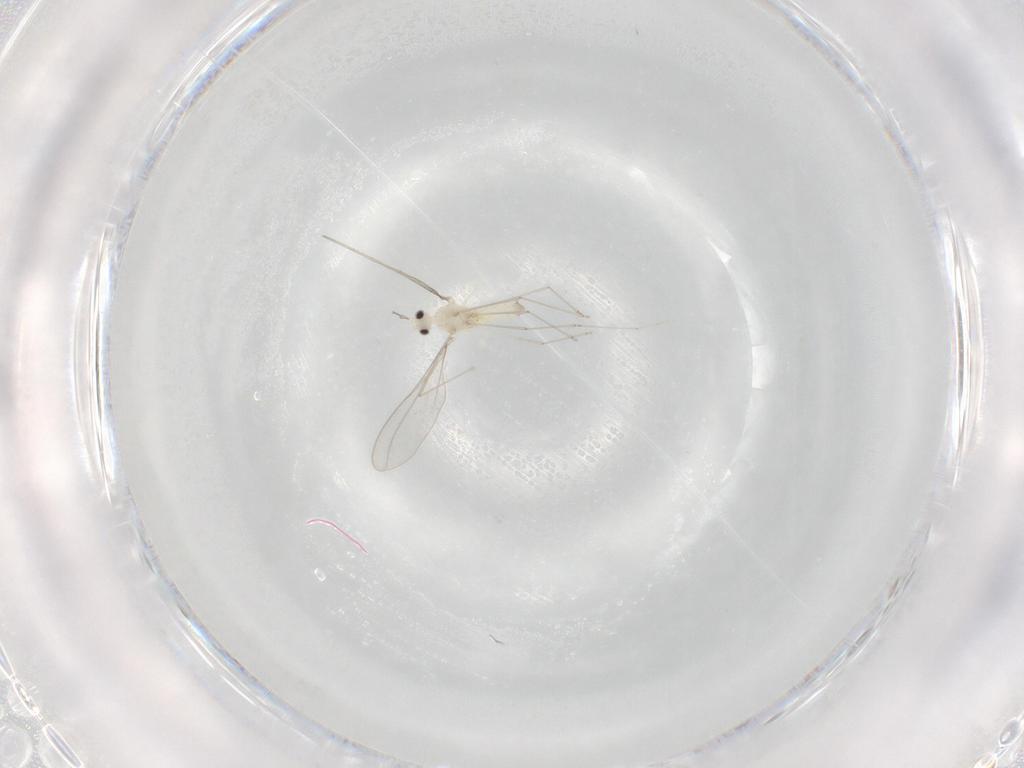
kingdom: Animalia
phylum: Arthropoda
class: Insecta
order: Diptera
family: Cecidomyiidae
